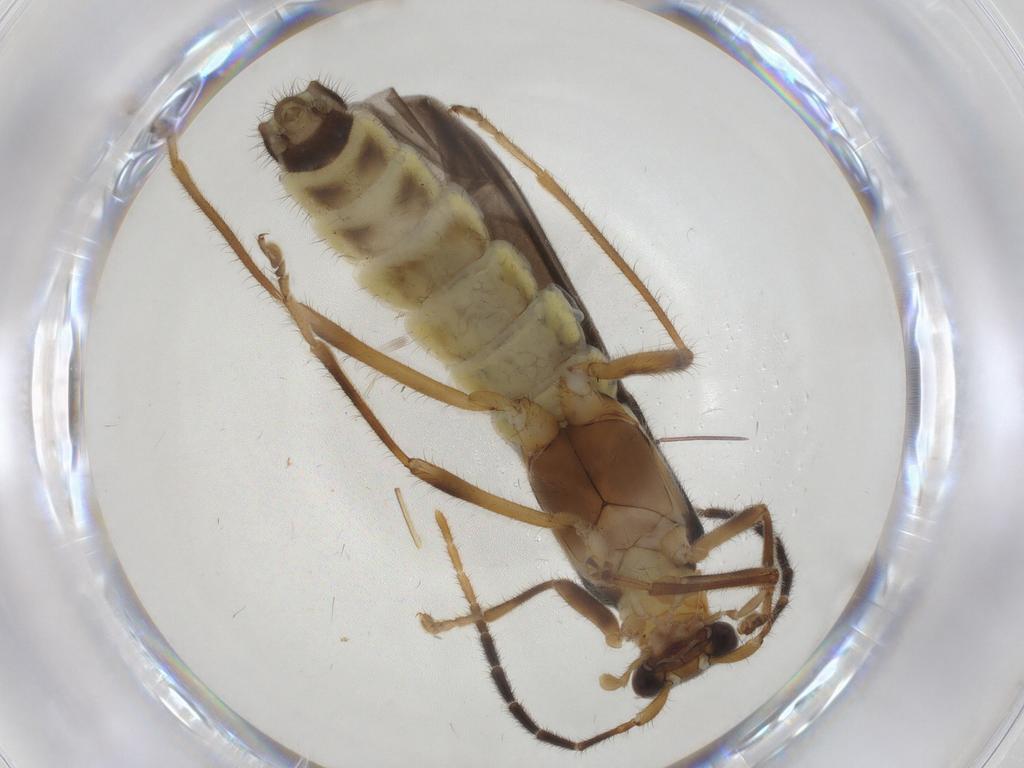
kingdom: Animalia
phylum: Arthropoda
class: Insecta
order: Coleoptera
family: Cantharidae
